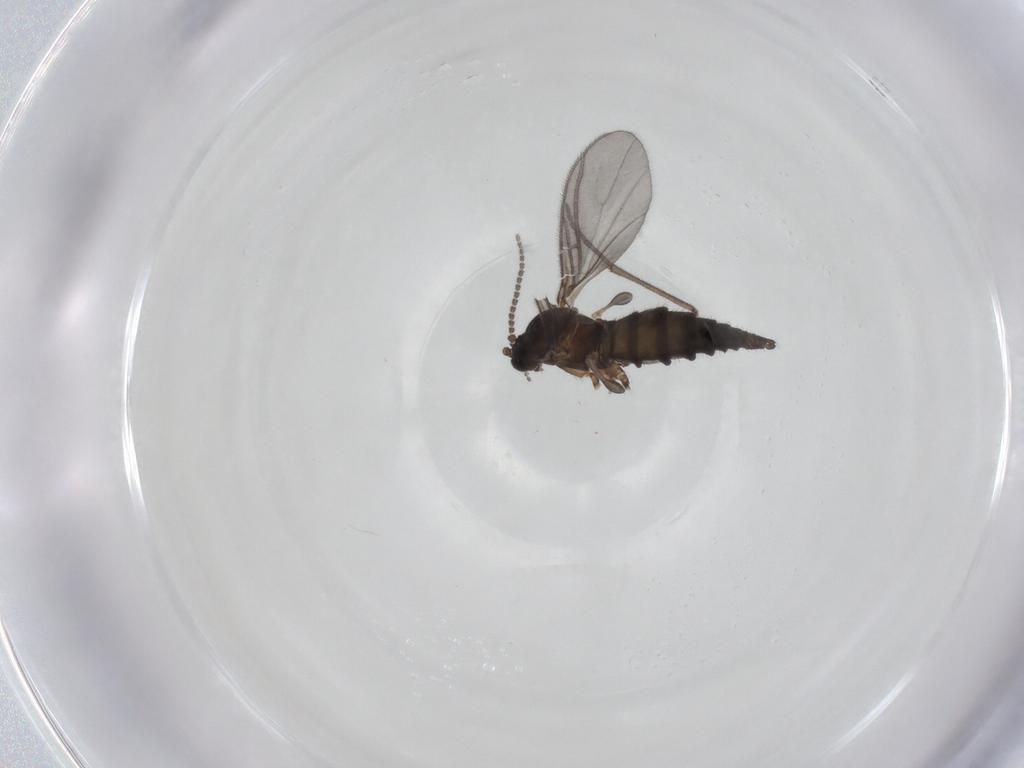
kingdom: Animalia
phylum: Arthropoda
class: Insecta
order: Diptera
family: Sciaridae
